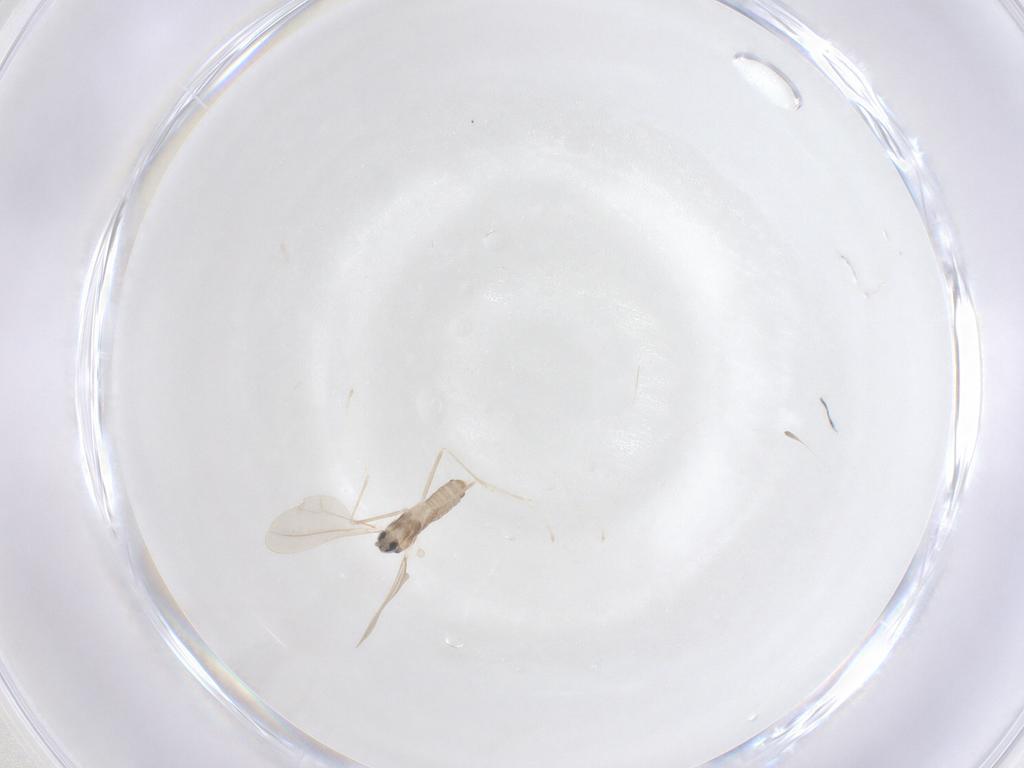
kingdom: Animalia
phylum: Arthropoda
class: Insecta
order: Diptera
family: Cecidomyiidae
